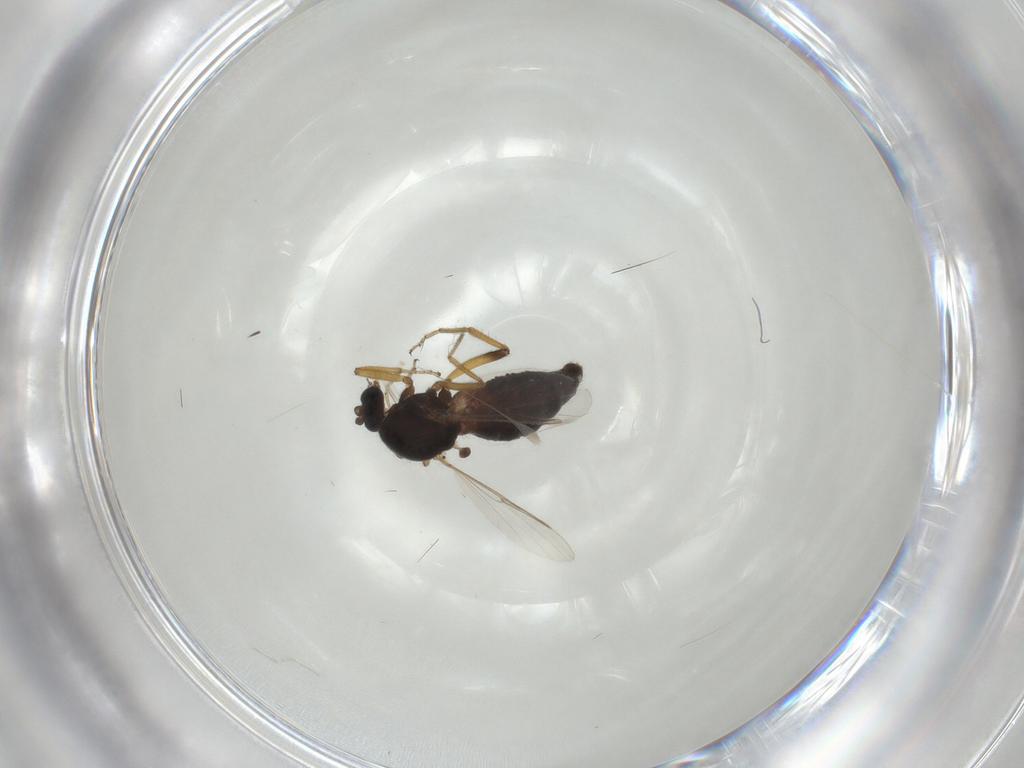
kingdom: Animalia
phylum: Arthropoda
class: Insecta
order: Diptera
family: Ceratopogonidae
